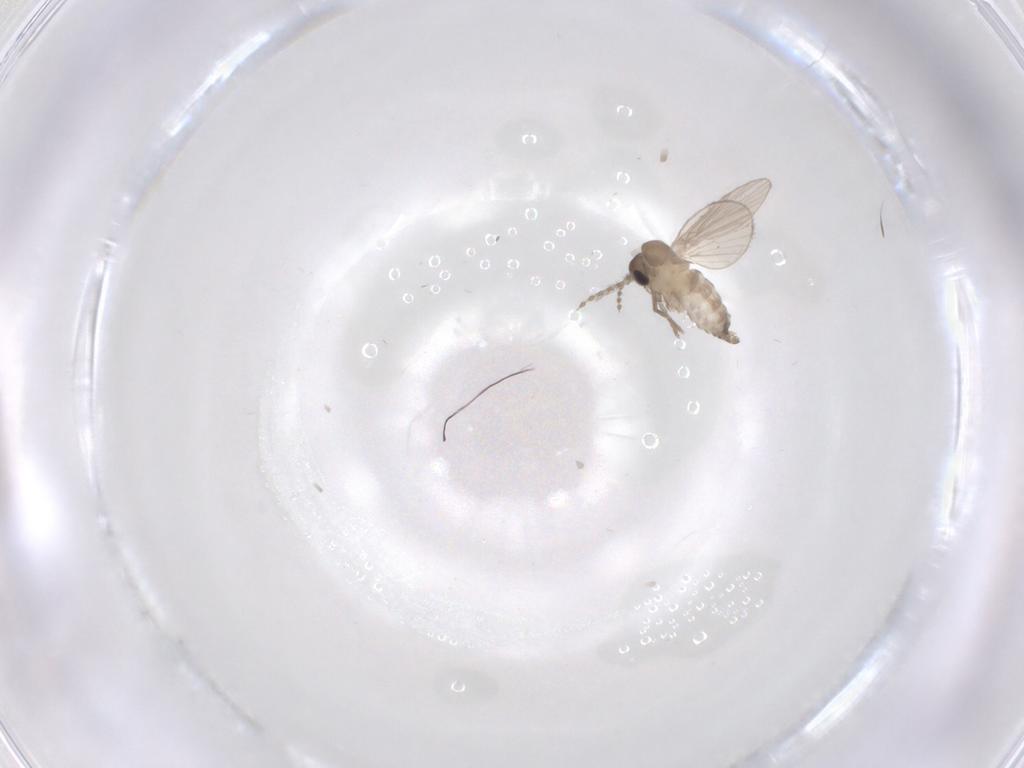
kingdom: Animalia
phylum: Arthropoda
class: Insecta
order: Diptera
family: Psychodidae
